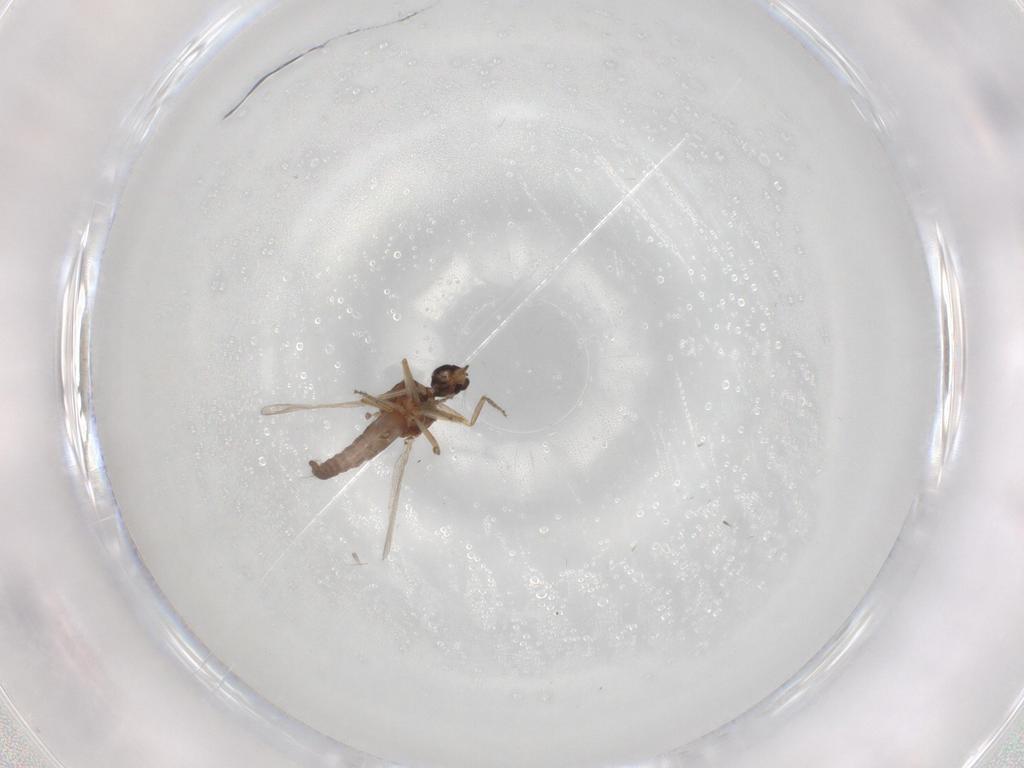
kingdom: Animalia
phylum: Arthropoda
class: Insecta
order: Diptera
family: Ceratopogonidae
